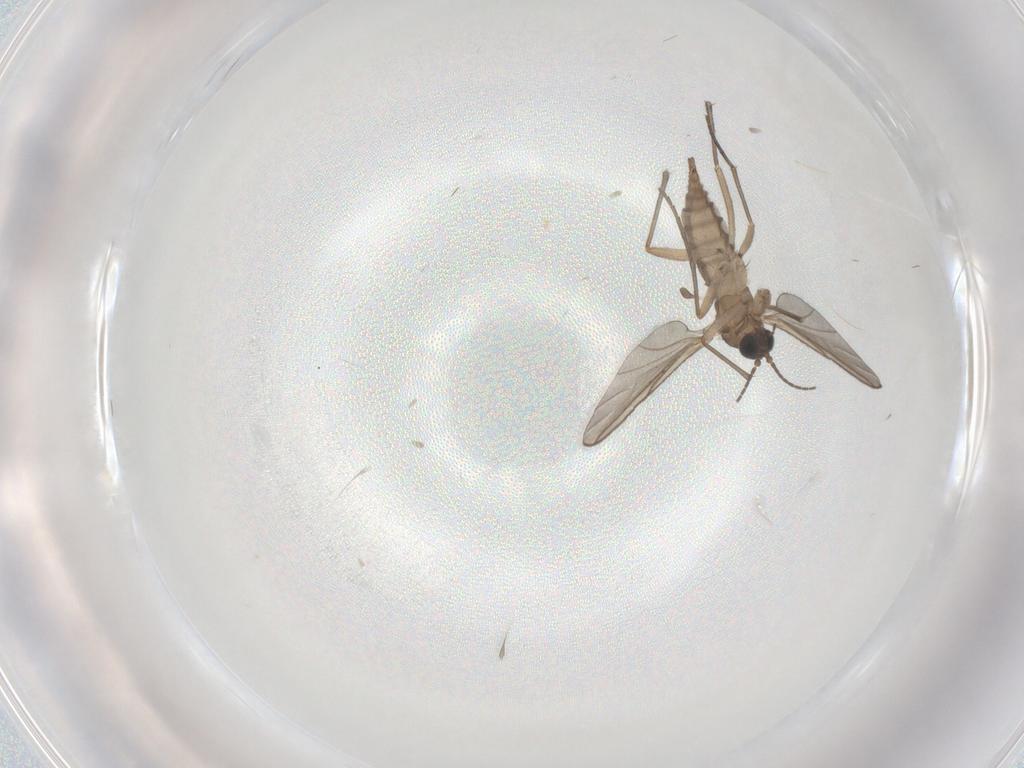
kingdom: Animalia
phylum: Arthropoda
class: Insecta
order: Diptera
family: Sciaridae
